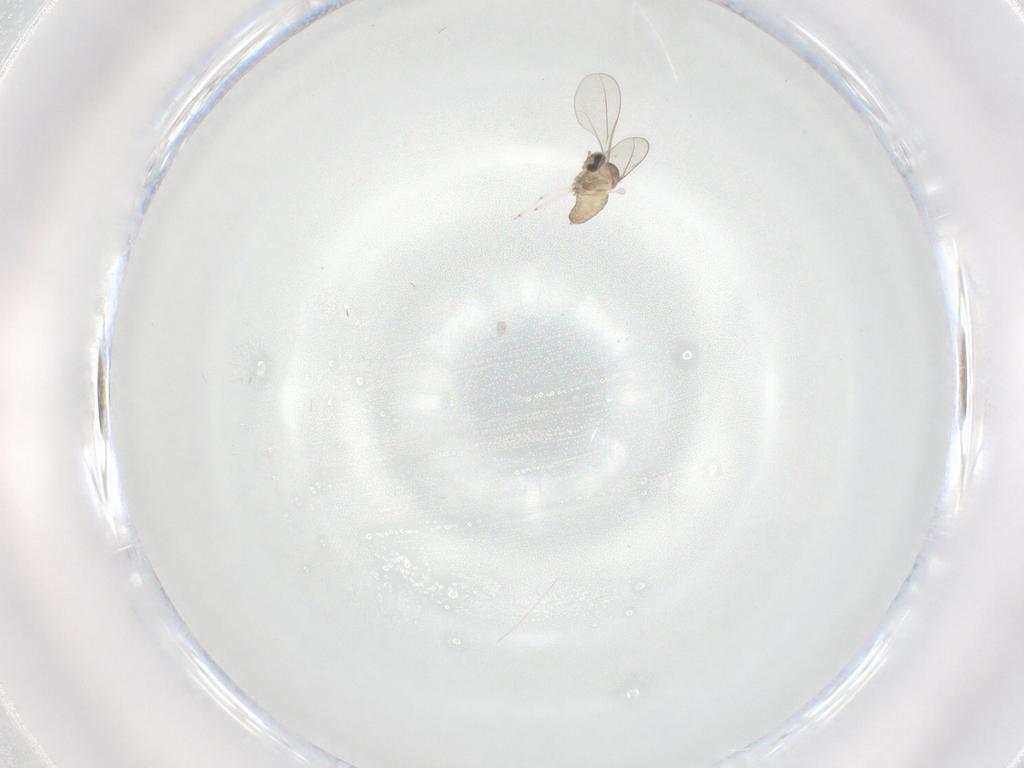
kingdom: Animalia
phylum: Arthropoda
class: Insecta
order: Diptera
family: Cecidomyiidae
